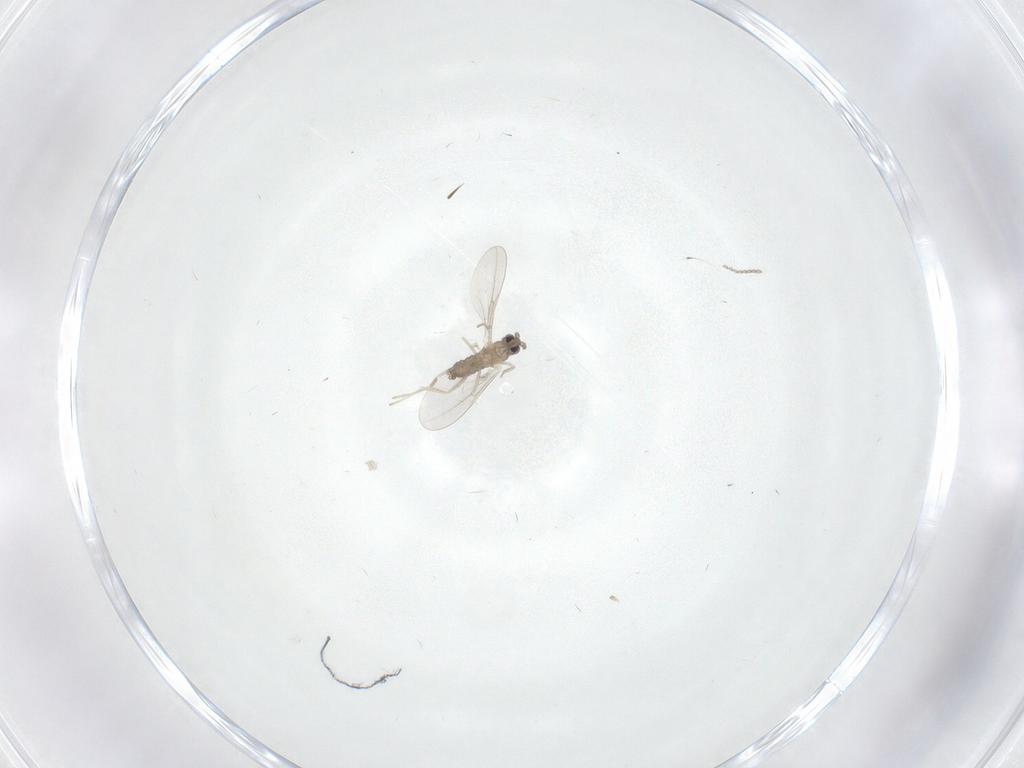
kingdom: Animalia
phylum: Arthropoda
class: Insecta
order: Diptera
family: Cecidomyiidae
